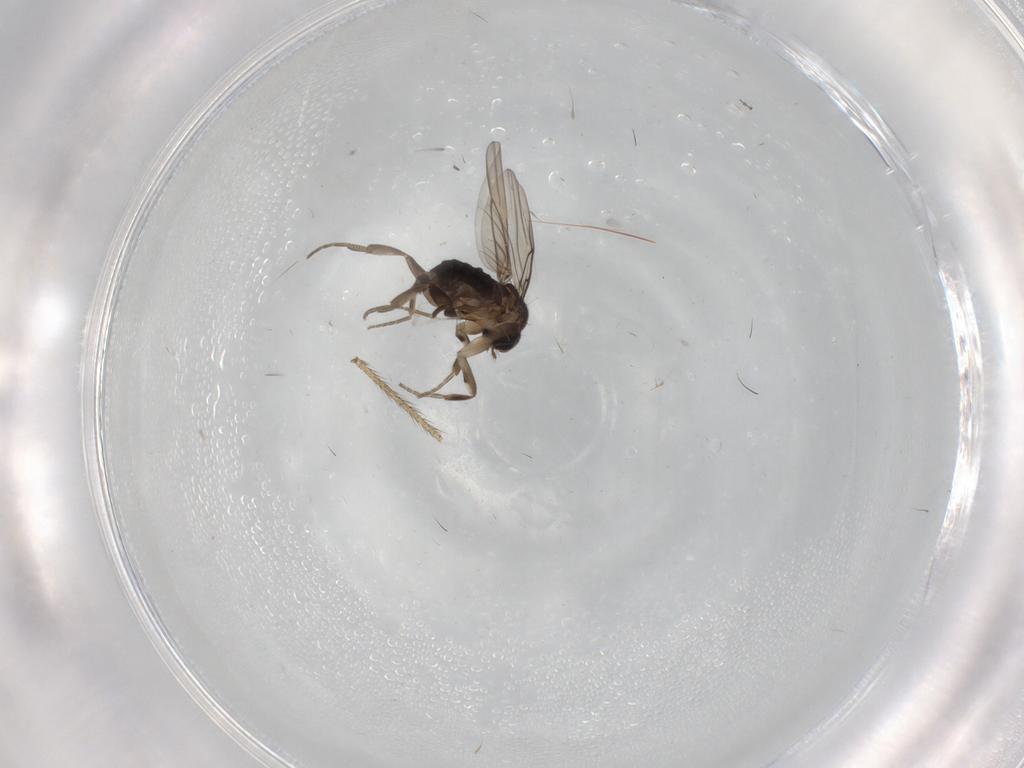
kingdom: Animalia
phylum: Arthropoda
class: Insecta
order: Diptera
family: Phoridae
